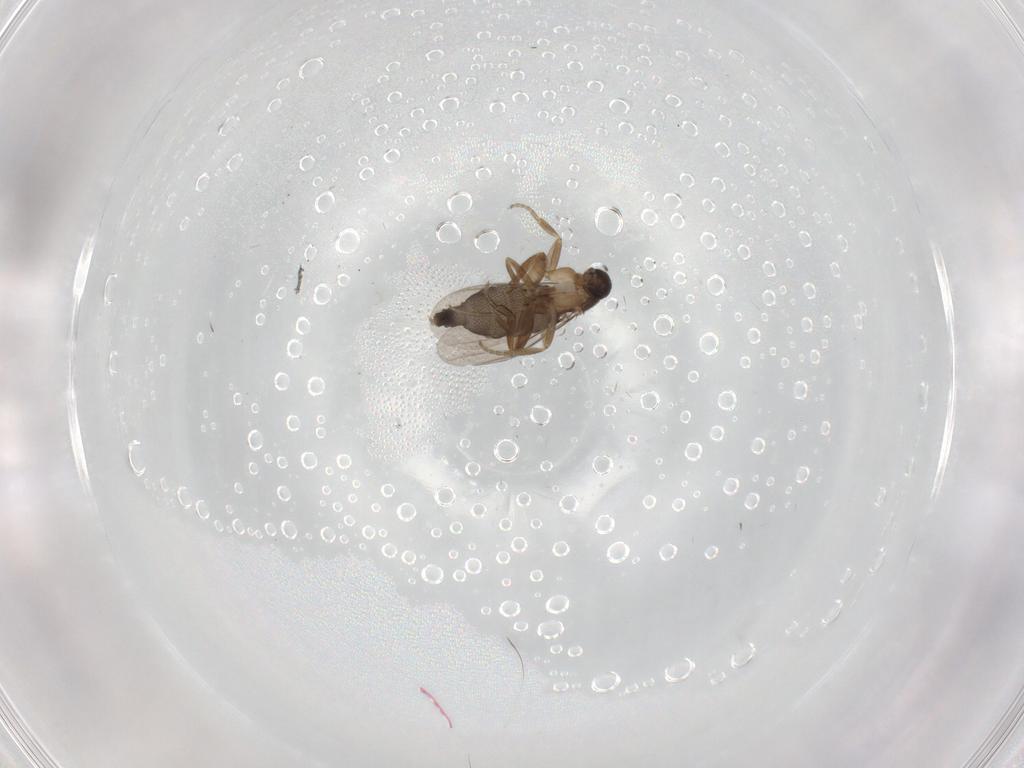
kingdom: Animalia
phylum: Arthropoda
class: Insecta
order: Diptera
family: Phoridae
